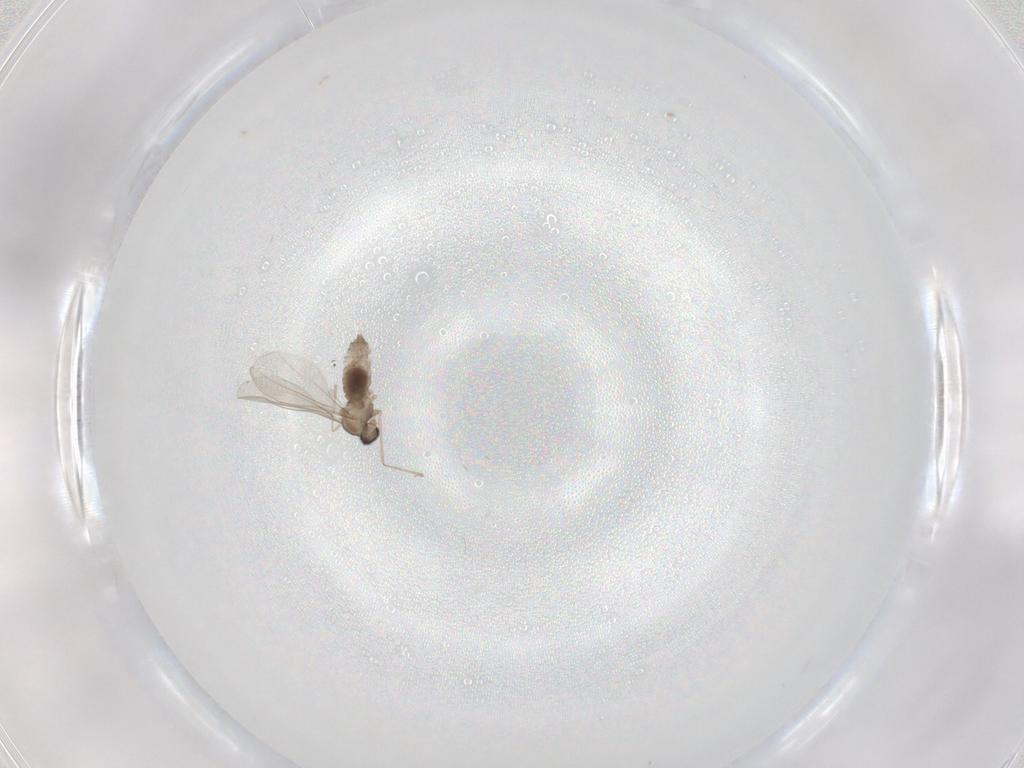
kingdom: Animalia
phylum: Arthropoda
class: Insecta
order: Diptera
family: Cecidomyiidae
